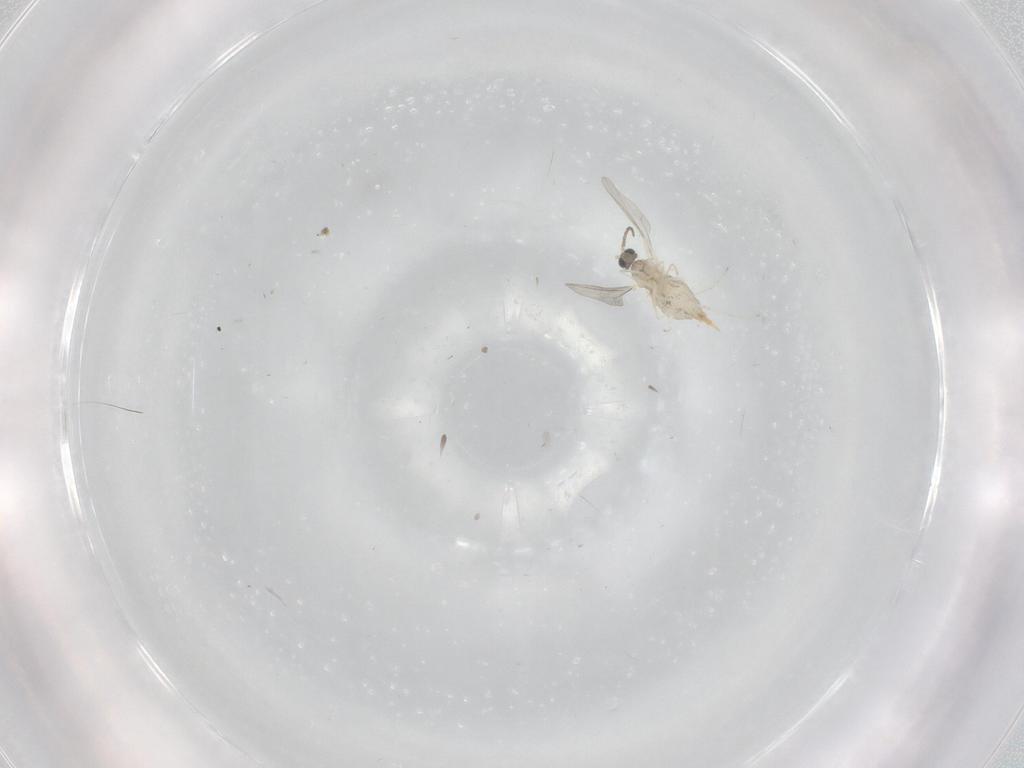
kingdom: Animalia
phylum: Arthropoda
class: Insecta
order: Diptera
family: Cecidomyiidae
